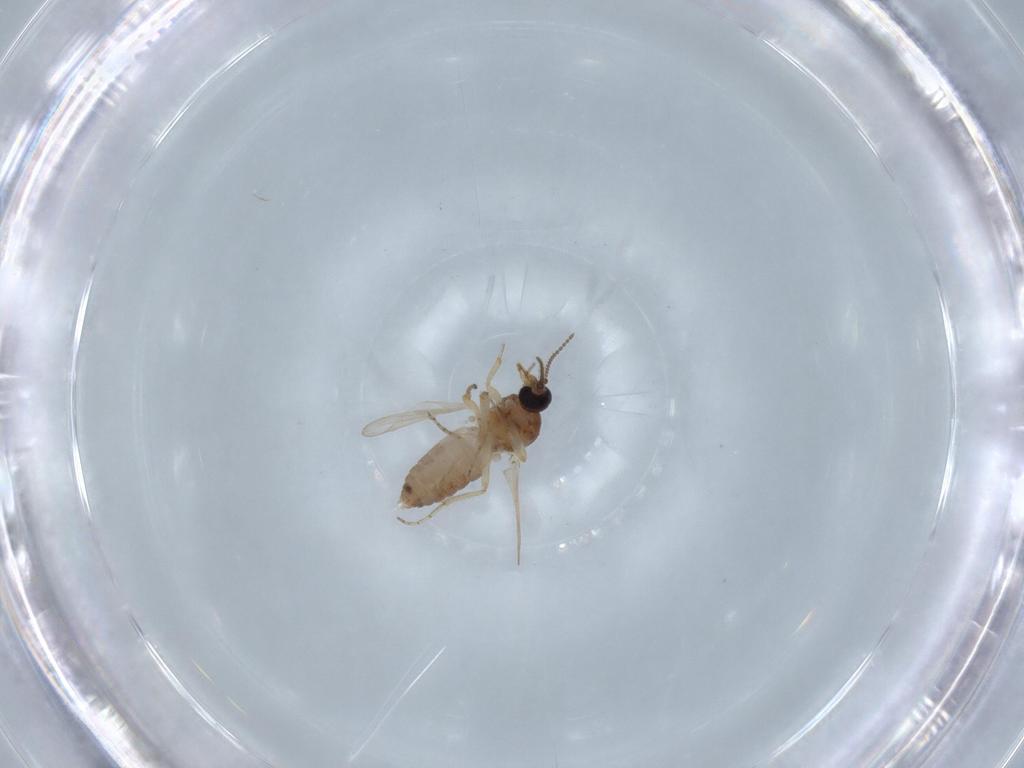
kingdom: Animalia
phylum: Arthropoda
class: Insecta
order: Diptera
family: Ceratopogonidae
